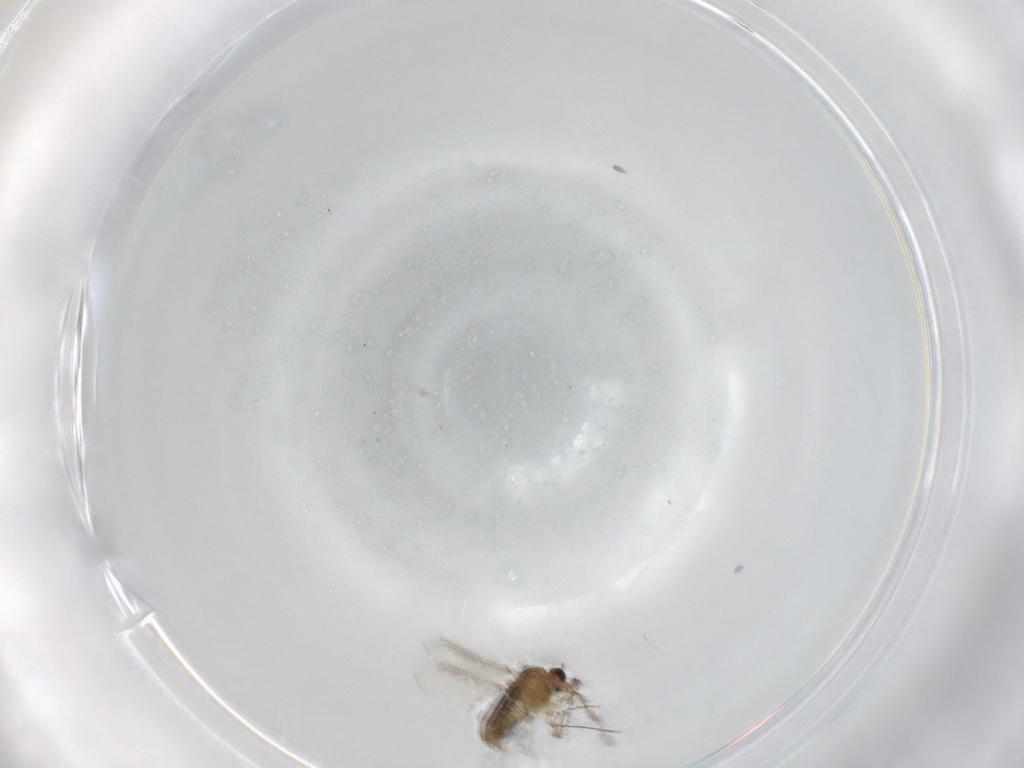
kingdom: Animalia
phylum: Arthropoda
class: Insecta
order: Diptera
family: Chironomidae
